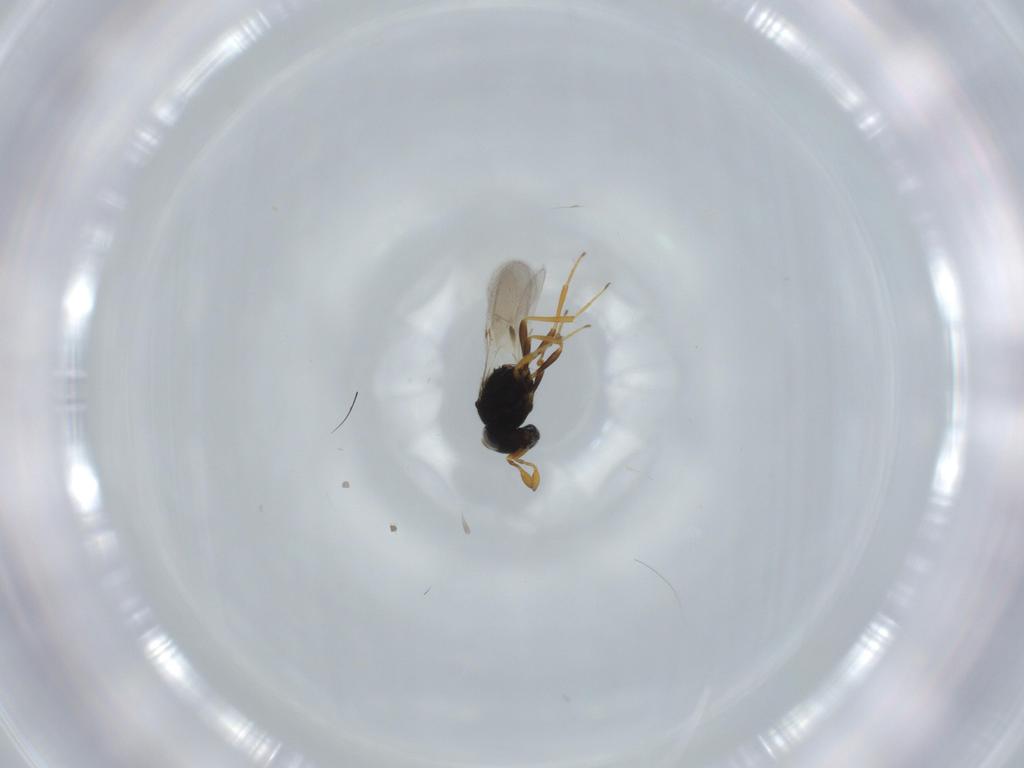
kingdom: Animalia
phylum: Arthropoda
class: Insecta
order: Hymenoptera
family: Scelionidae
